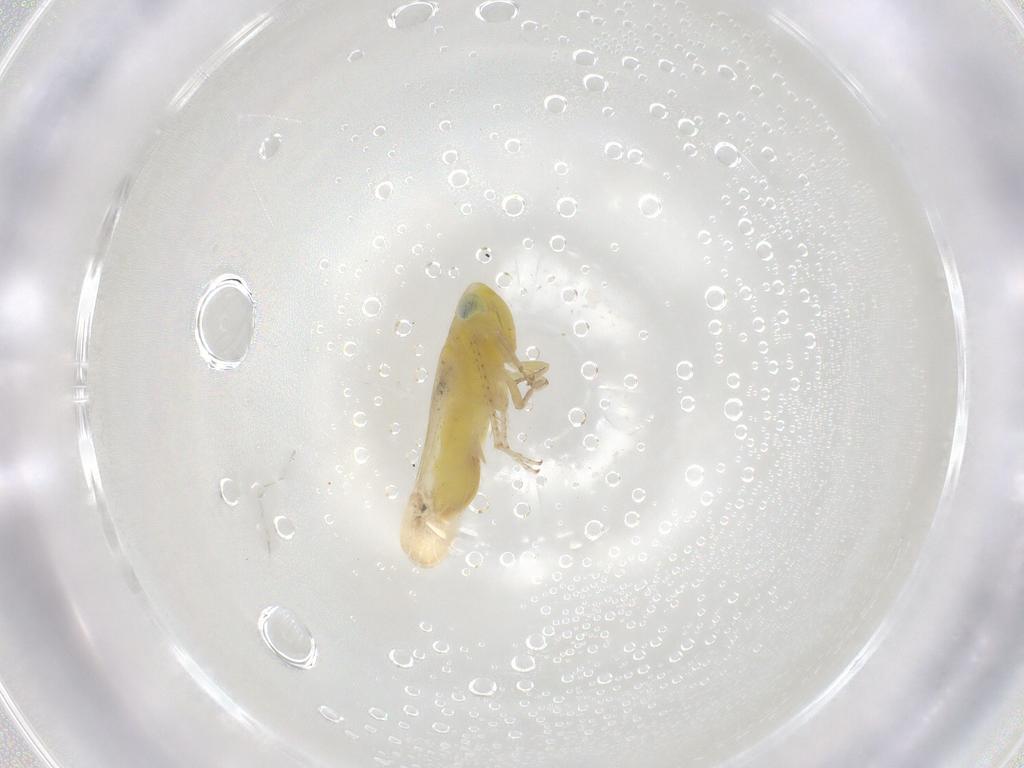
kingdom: Animalia
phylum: Arthropoda
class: Insecta
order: Hemiptera
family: Cicadellidae
